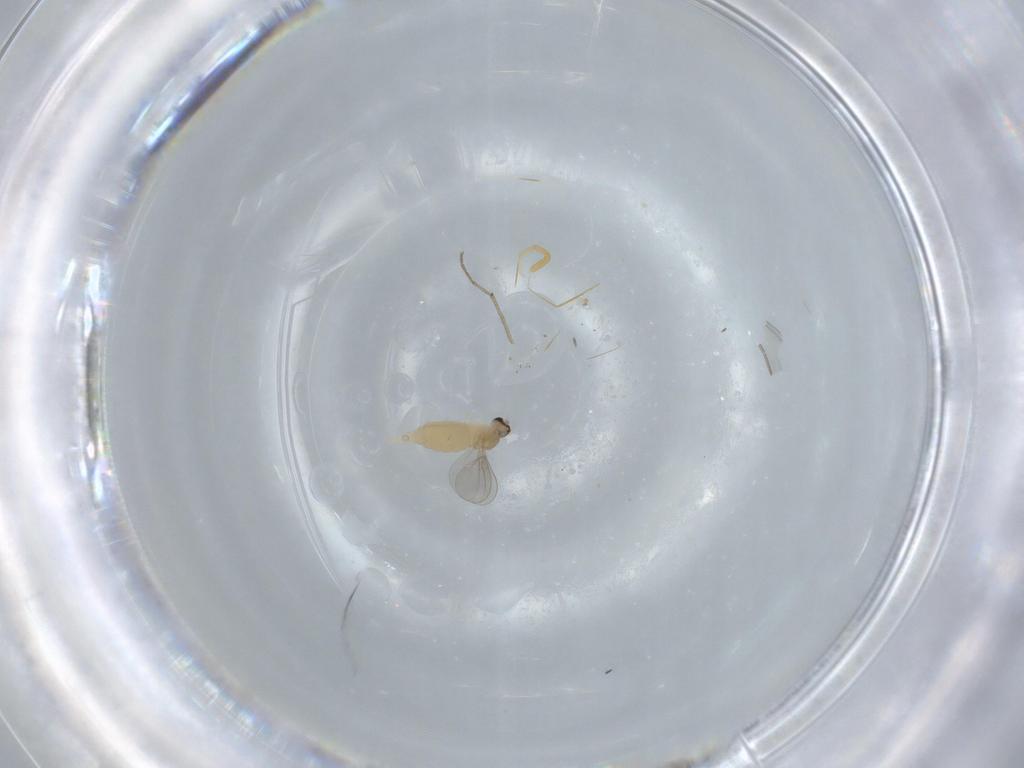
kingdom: Animalia
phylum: Arthropoda
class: Insecta
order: Diptera
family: Cecidomyiidae
